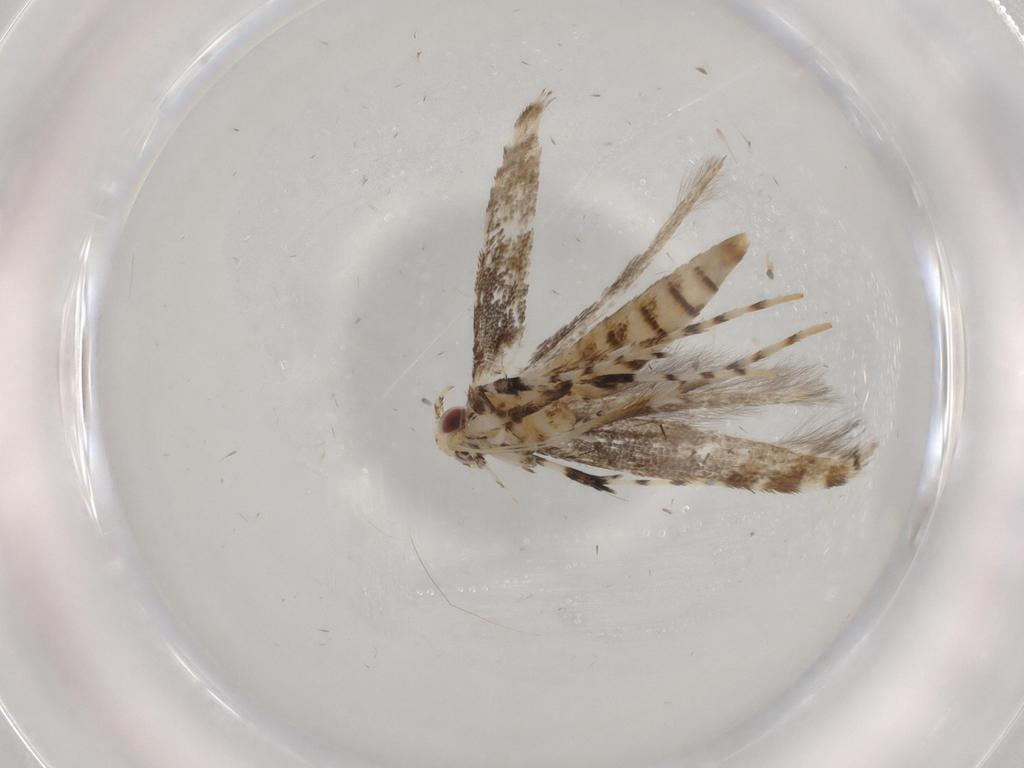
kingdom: Animalia
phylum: Arthropoda
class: Insecta
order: Lepidoptera
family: Gracillariidae
